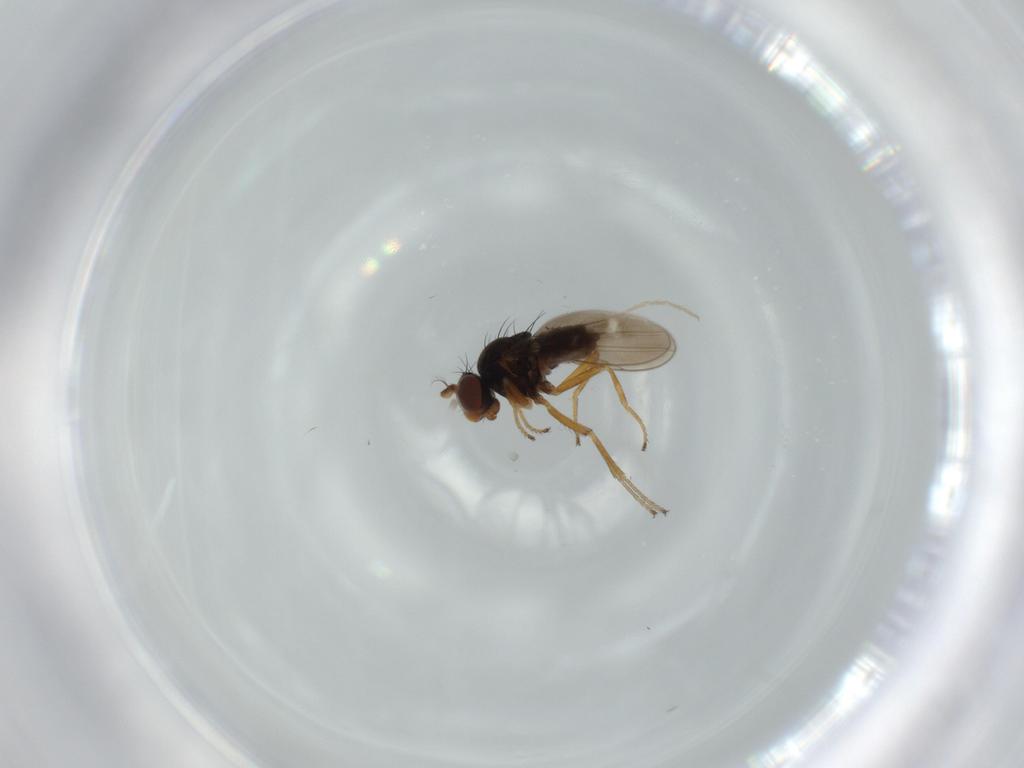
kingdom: Animalia
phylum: Arthropoda
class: Insecta
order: Diptera
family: Ephydridae
